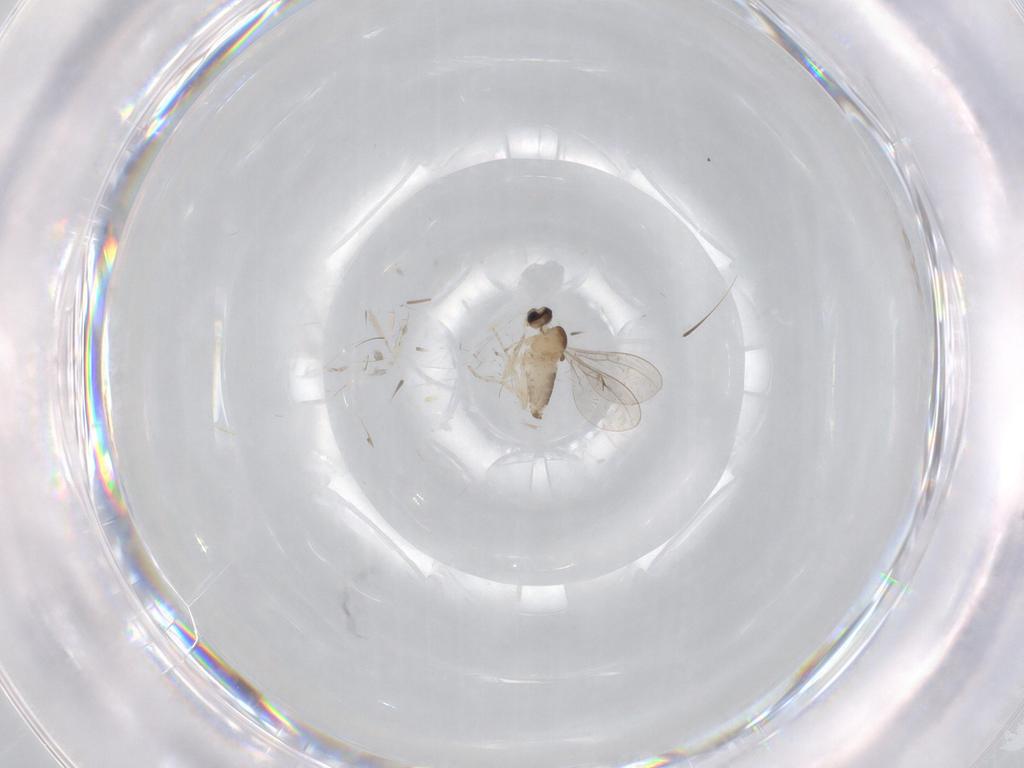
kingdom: Animalia
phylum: Arthropoda
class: Insecta
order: Diptera
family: Cecidomyiidae
